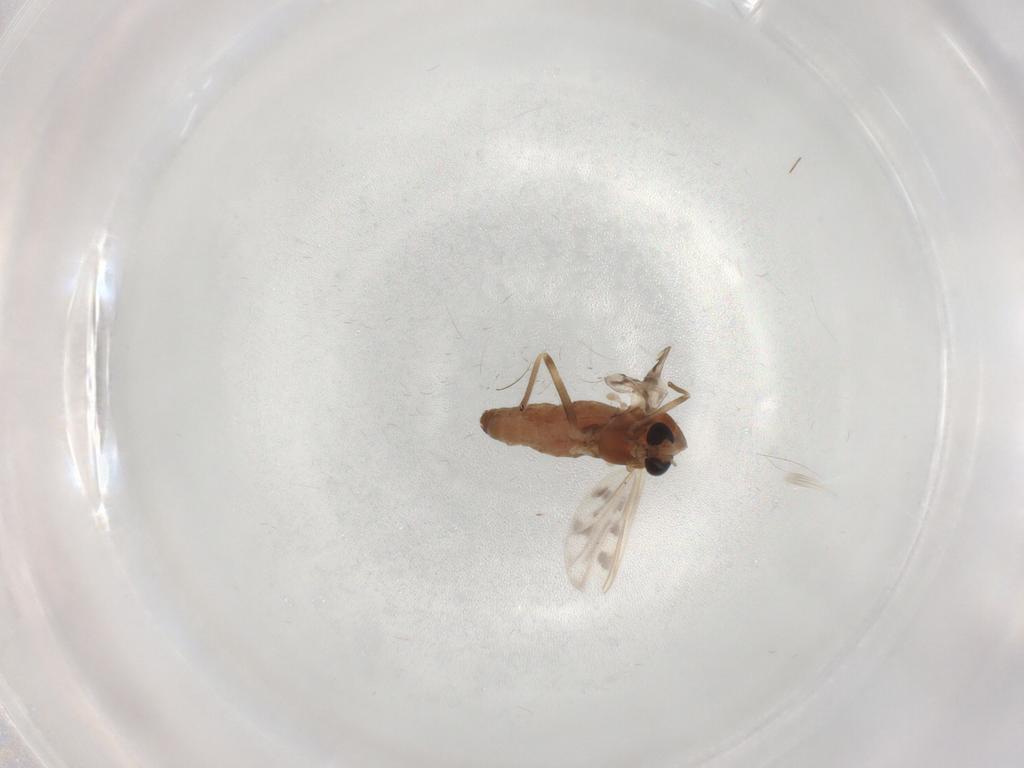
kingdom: Animalia
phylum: Arthropoda
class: Insecta
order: Diptera
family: Chironomidae
